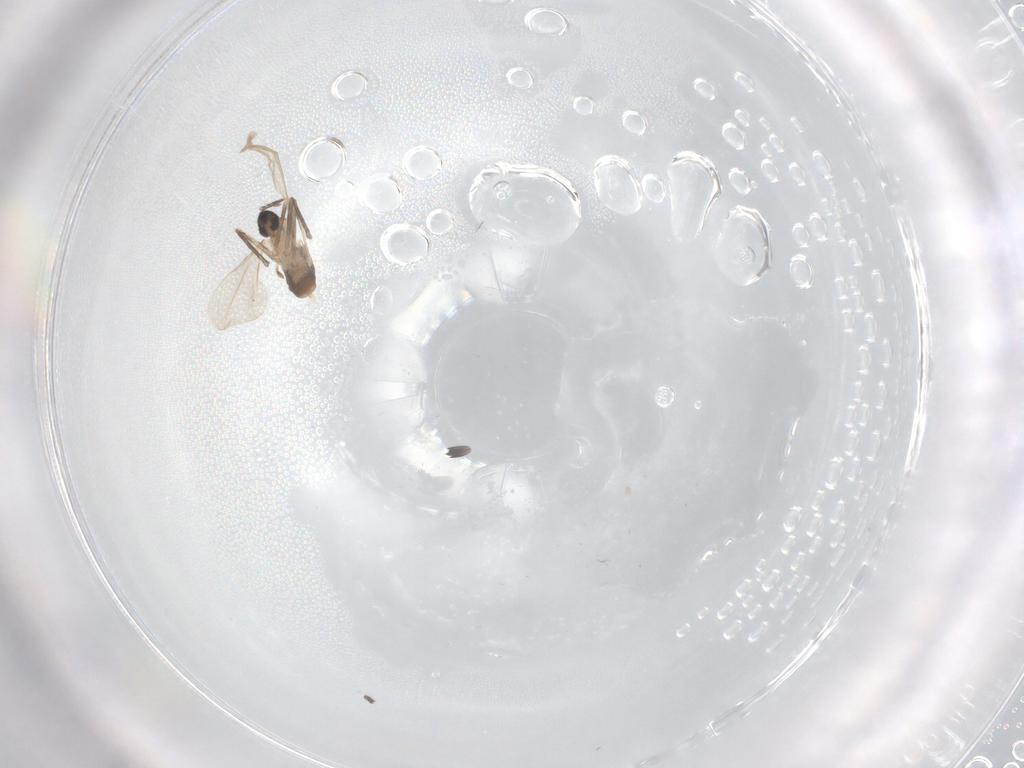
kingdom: Animalia
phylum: Arthropoda
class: Insecta
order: Diptera
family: Cecidomyiidae
